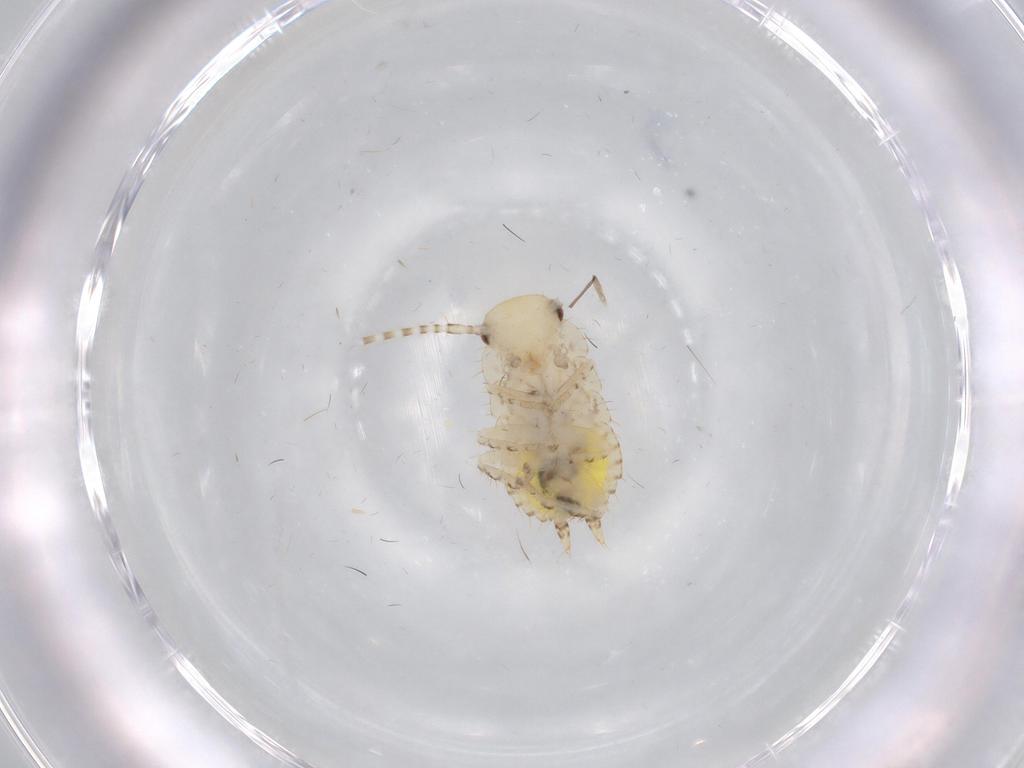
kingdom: Animalia
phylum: Arthropoda
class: Insecta
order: Blattodea
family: Ectobiidae
